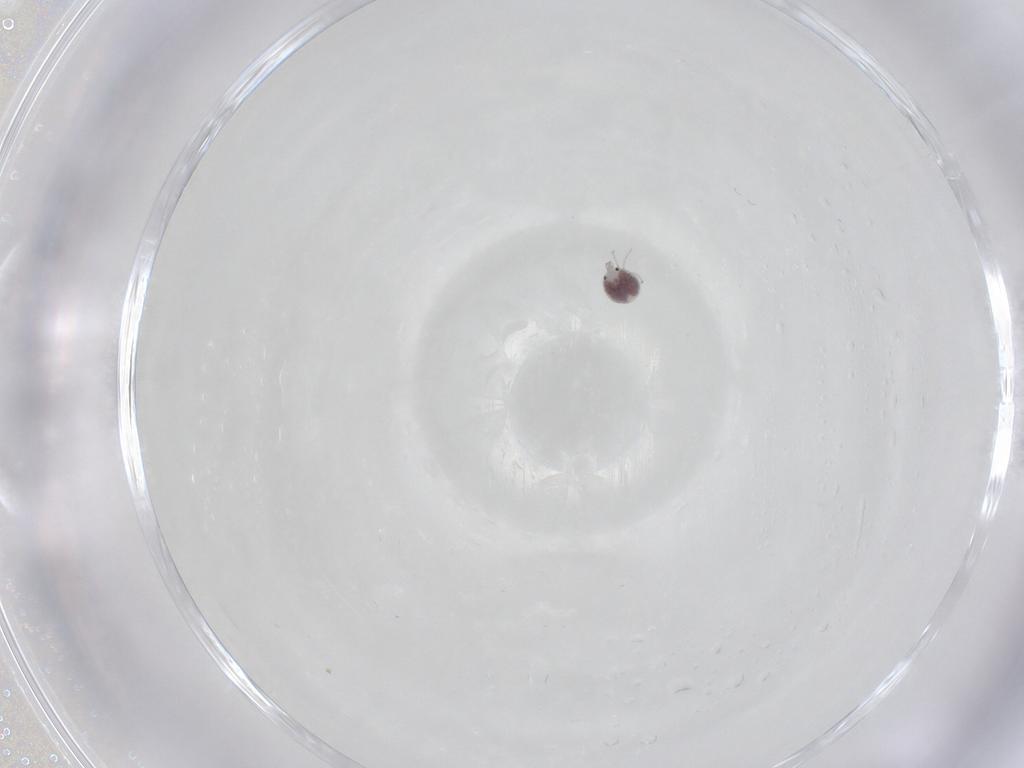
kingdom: Animalia
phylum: Arthropoda
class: Arachnida
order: Trombidiformes
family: Pionidae
